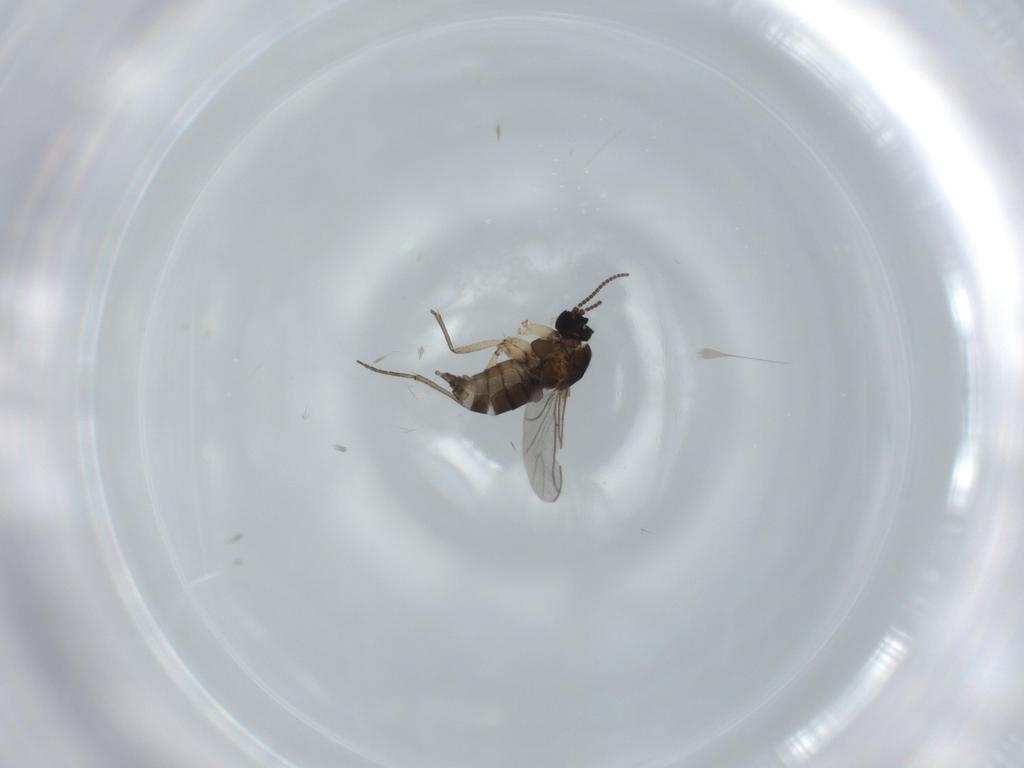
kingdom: Animalia
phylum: Arthropoda
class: Insecta
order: Diptera
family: Sciaridae
